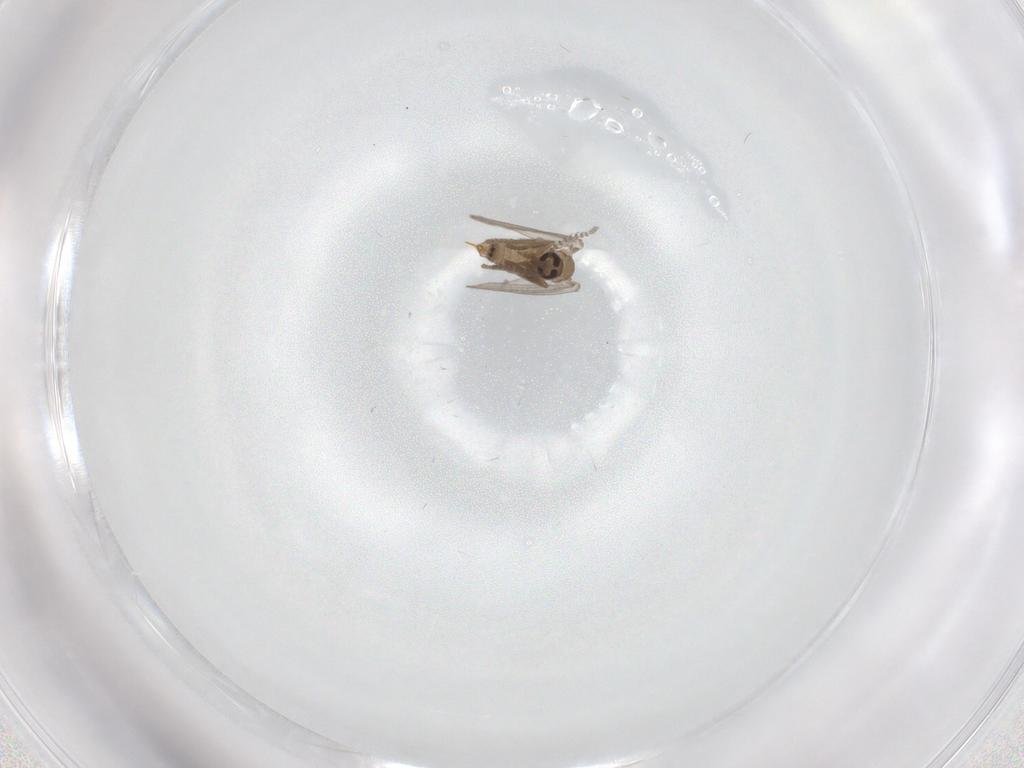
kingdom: Animalia
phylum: Arthropoda
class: Insecta
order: Diptera
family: Psychodidae
